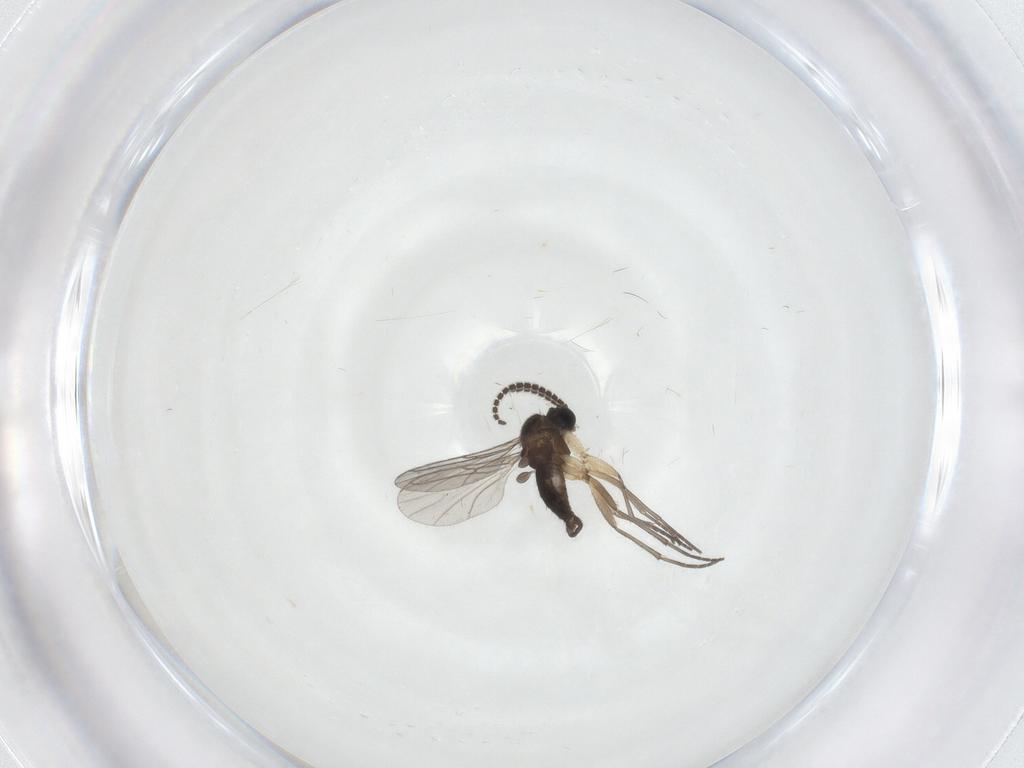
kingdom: Animalia
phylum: Arthropoda
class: Insecta
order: Diptera
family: Sciaridae
